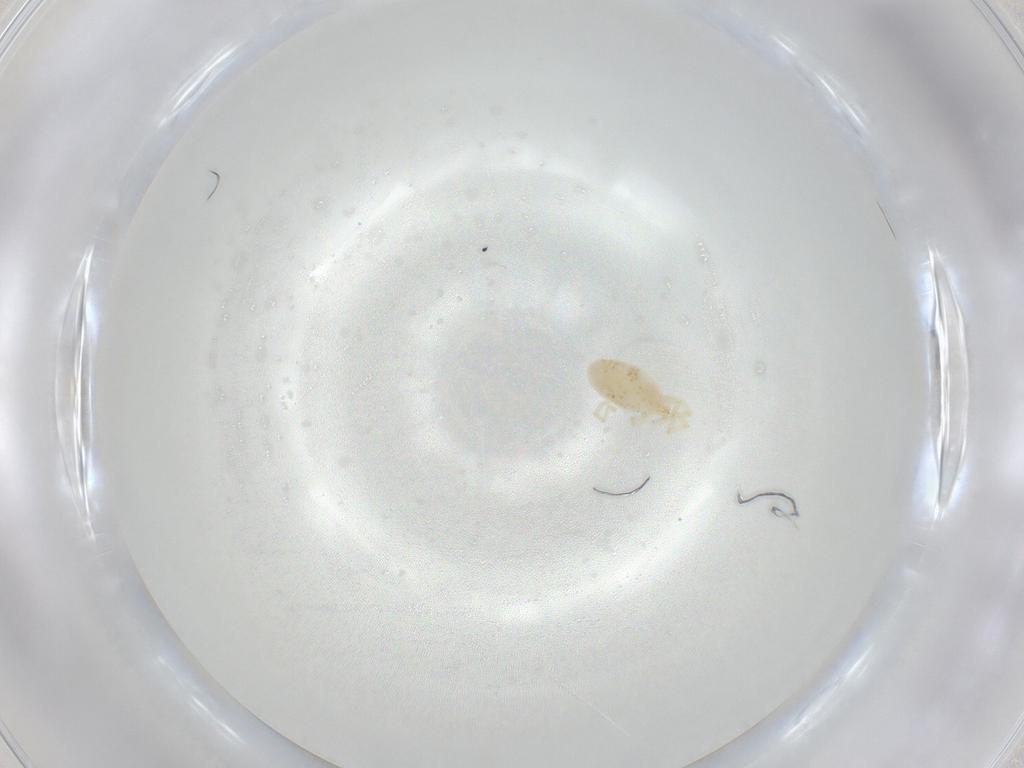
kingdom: Animalia
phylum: Arthropoda
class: Arachnida
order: Trombidiformes
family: Erythraeidae
